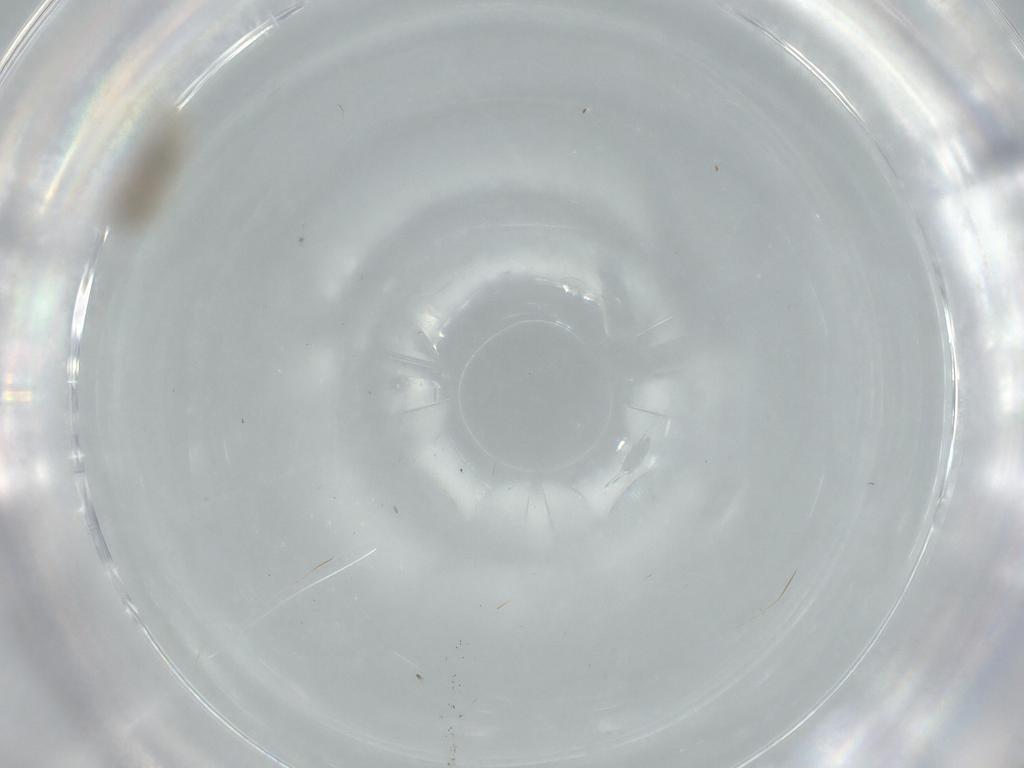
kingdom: Animalia
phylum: Arthropoda
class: Insecta
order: Diptera
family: Cecidomyiidae
